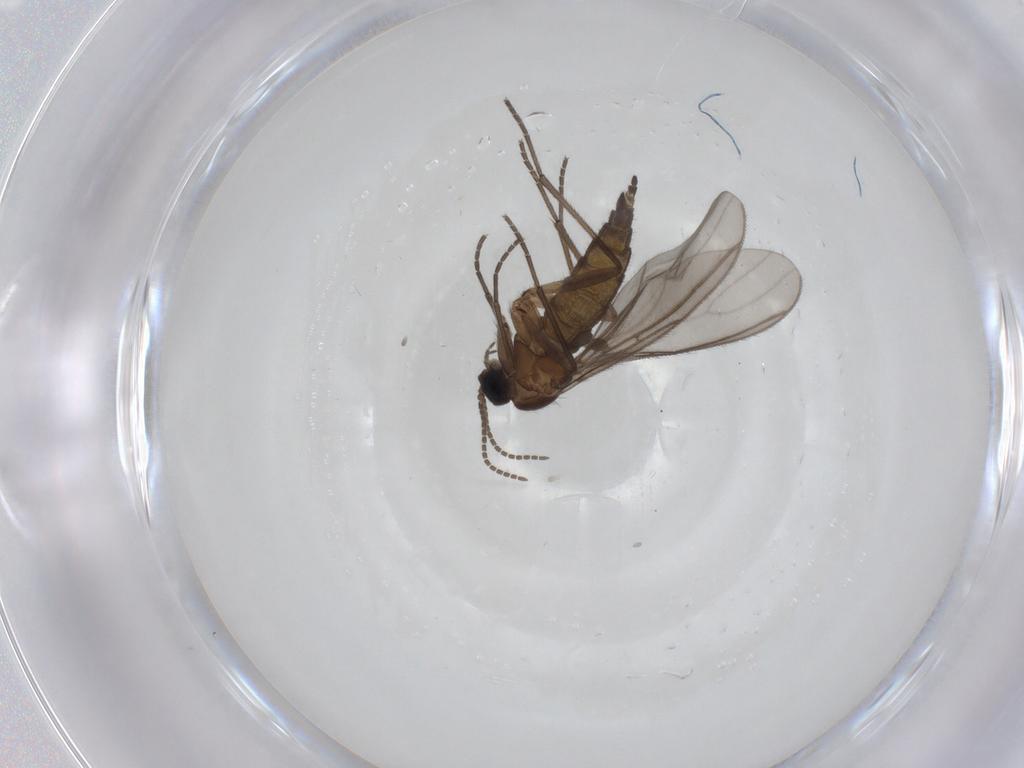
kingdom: Animalia
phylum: Arthropoda
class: Insecta
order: Diptera
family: Sciaridae
